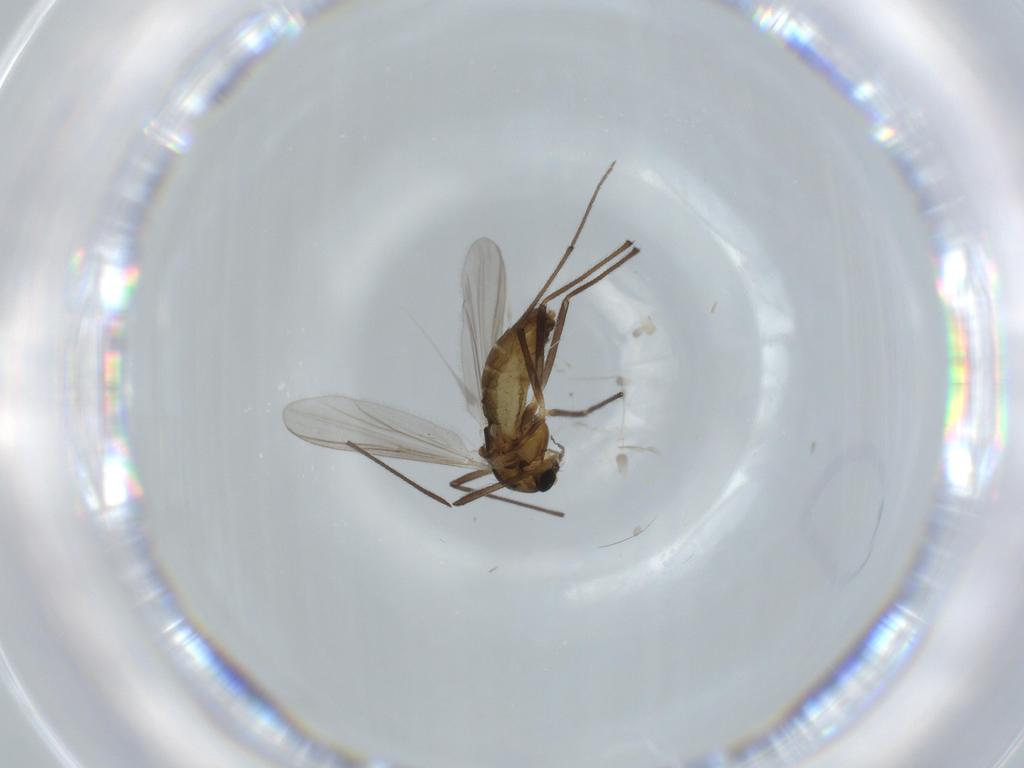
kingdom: Animalia
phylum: Arthropoda
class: Insecta
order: Diptera
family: Chironomidae
